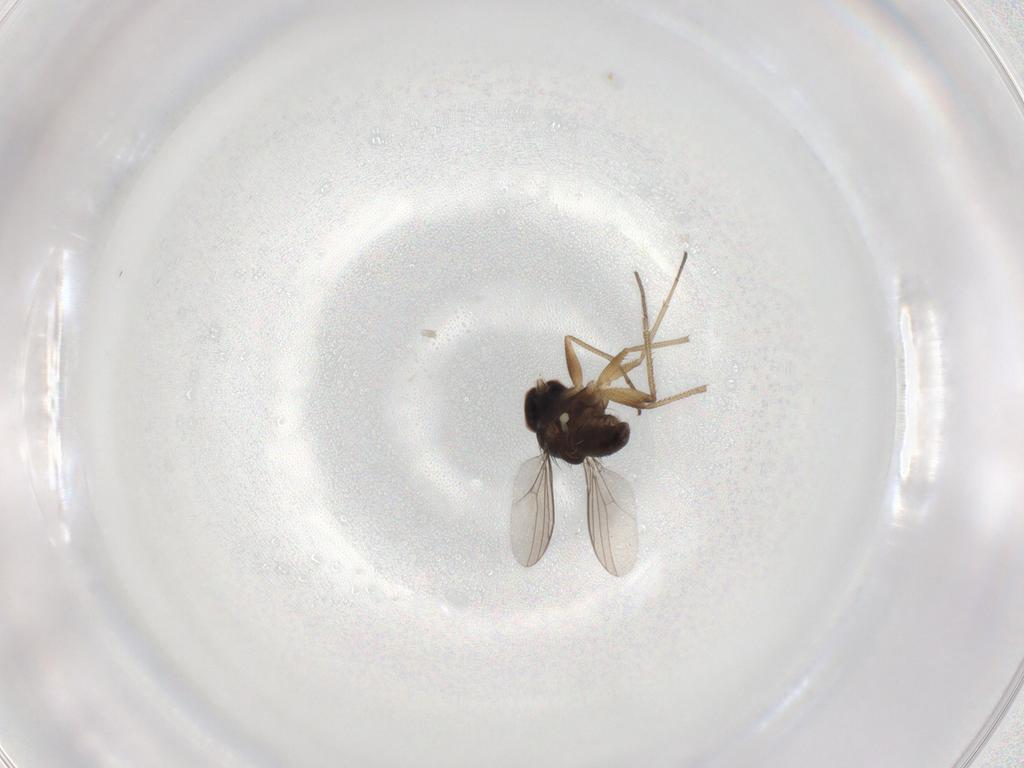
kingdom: Animalia
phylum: Arthropoda
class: Insecta
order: Diptera
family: Dolichopodidae
